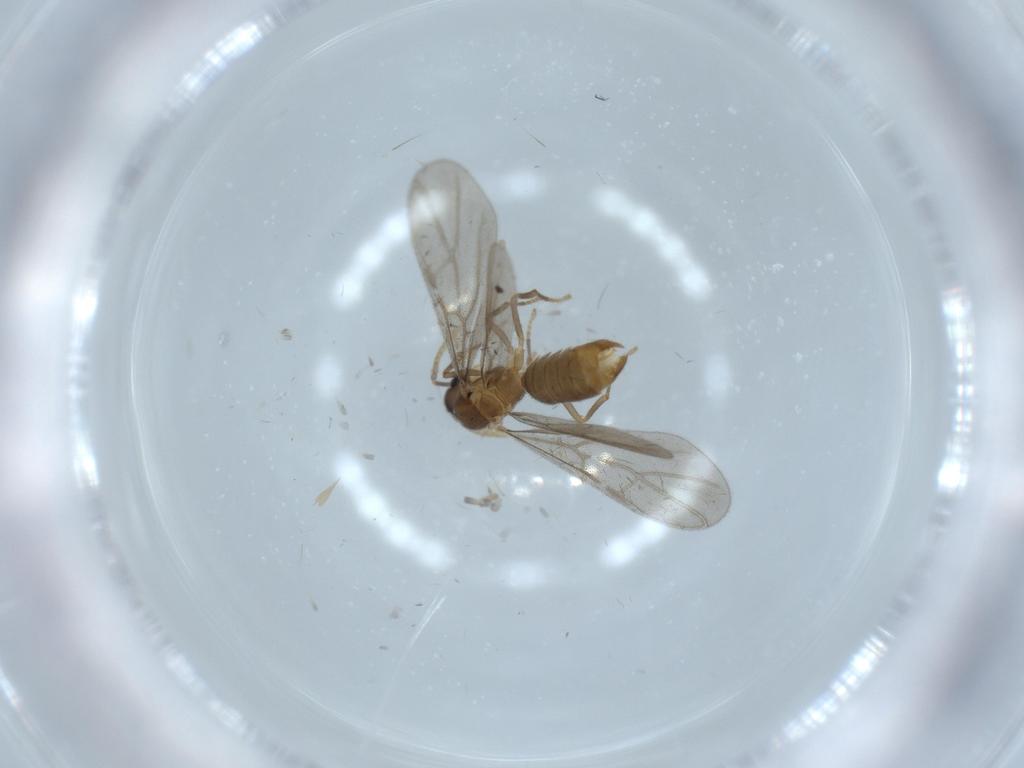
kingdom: Animalia
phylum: Arthropoda
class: Insecta
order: Hymenoptera
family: Formicidae
